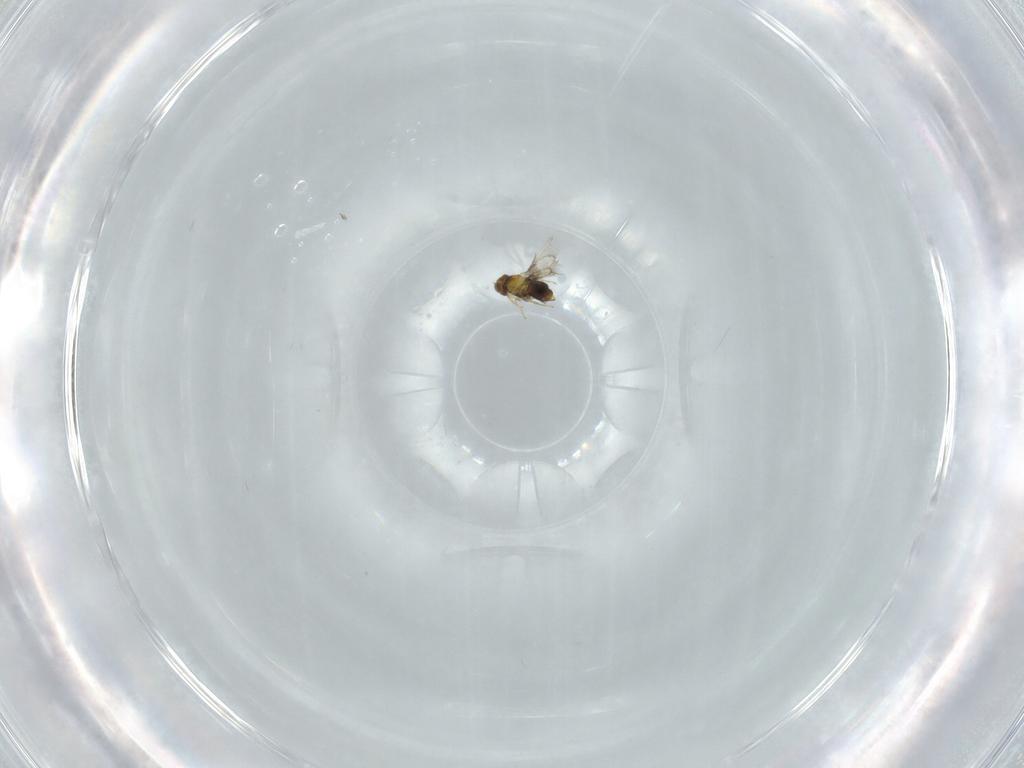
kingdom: Animalia
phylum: Arthropoda
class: Insecta
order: Hymenoptera
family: Aphelinidae
